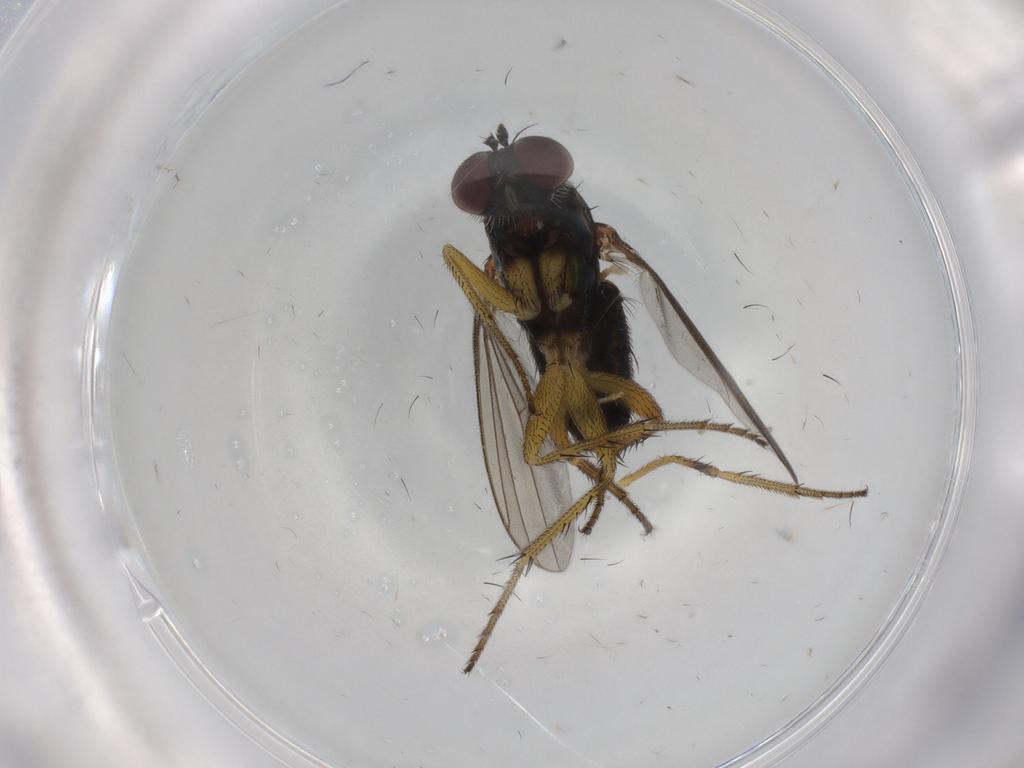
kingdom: Animalia
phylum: Arthropoda
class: Insecta
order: Diptera
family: Dolichopodidae
